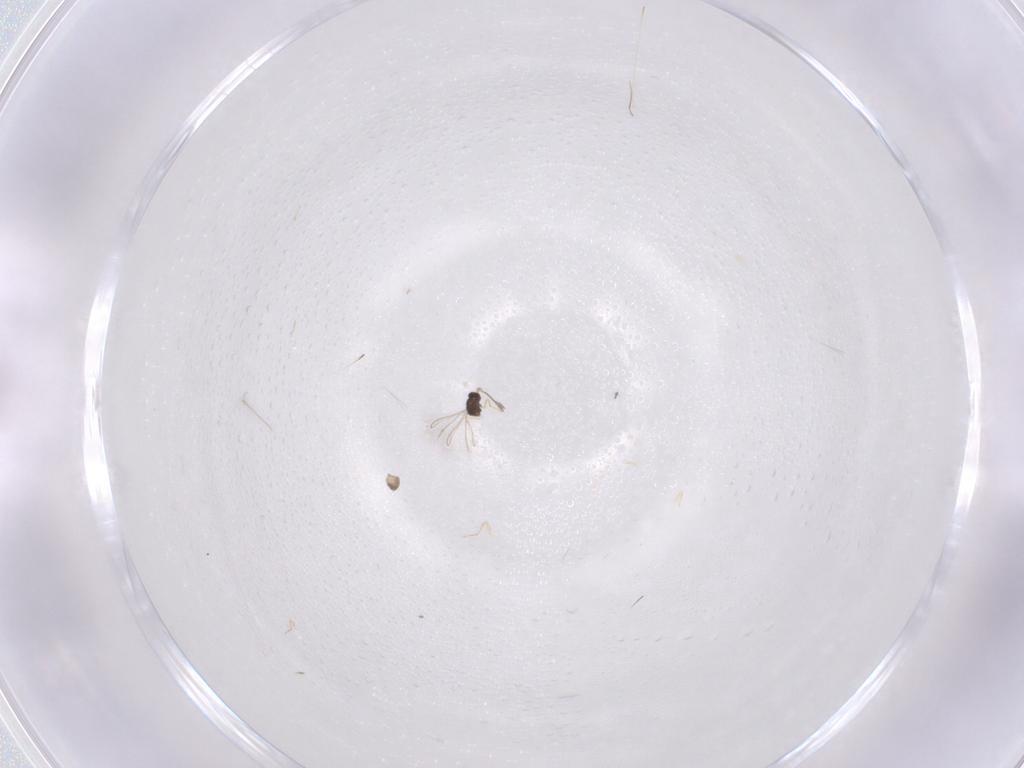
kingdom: Animalia
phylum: Arthropoda
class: Insecta
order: Hymenoptera
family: Mymaridae
